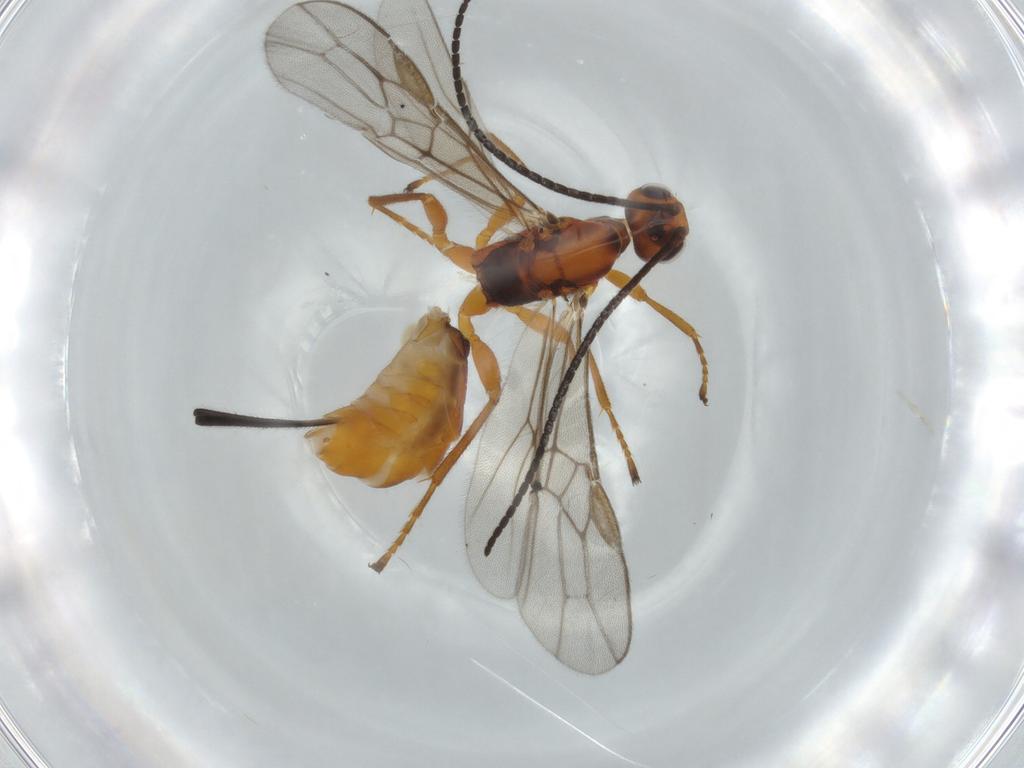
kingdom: Animalia
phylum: Arthropoda
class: Insecta
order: Hymenoptera
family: Braconidae
